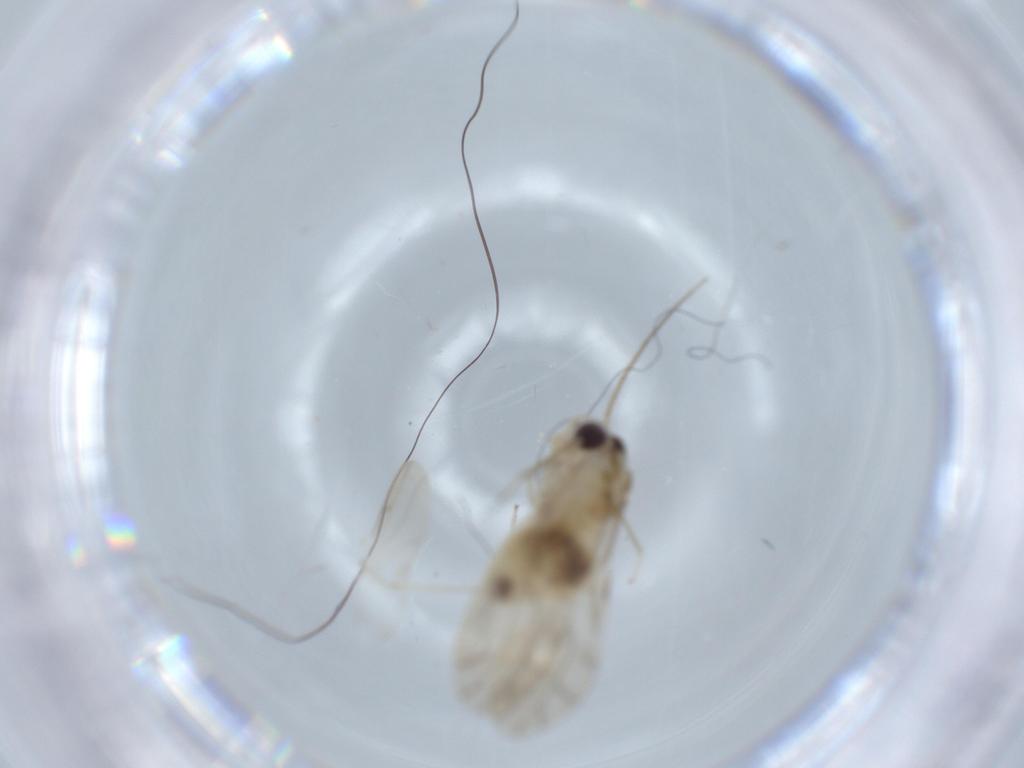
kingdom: Animalia
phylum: Arthropoda
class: Insecta
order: Psocodea
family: Caeciliusidae
